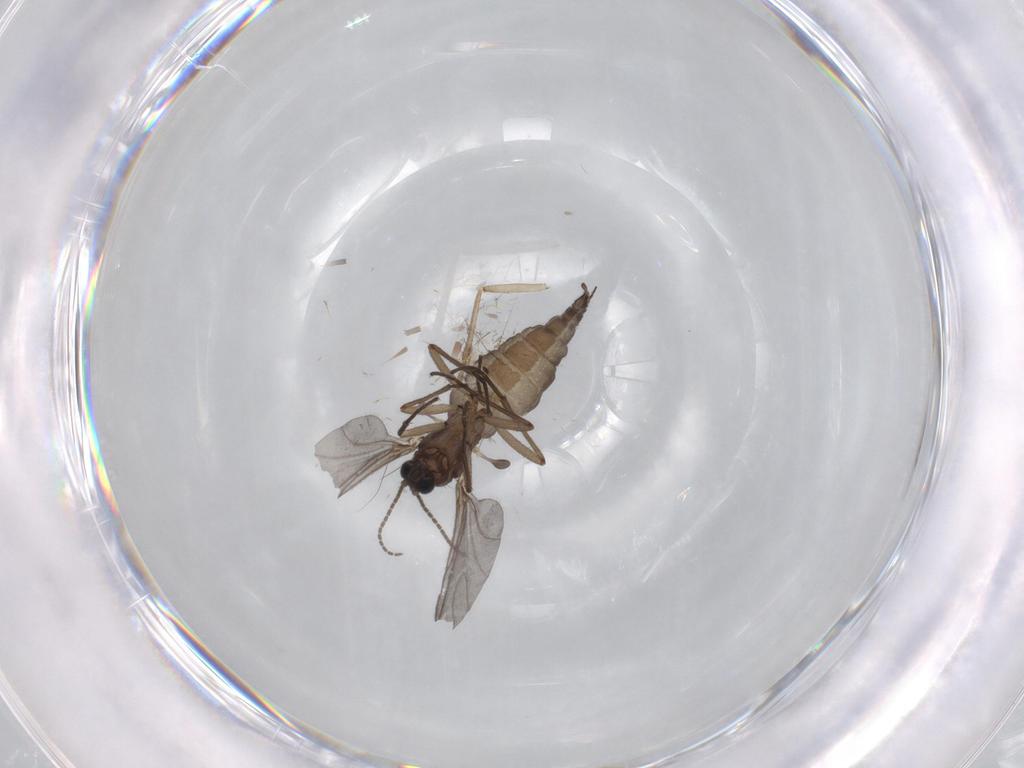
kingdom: Animalia
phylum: Arthropoda
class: Insecta
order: Diptera
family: Sciaridae
